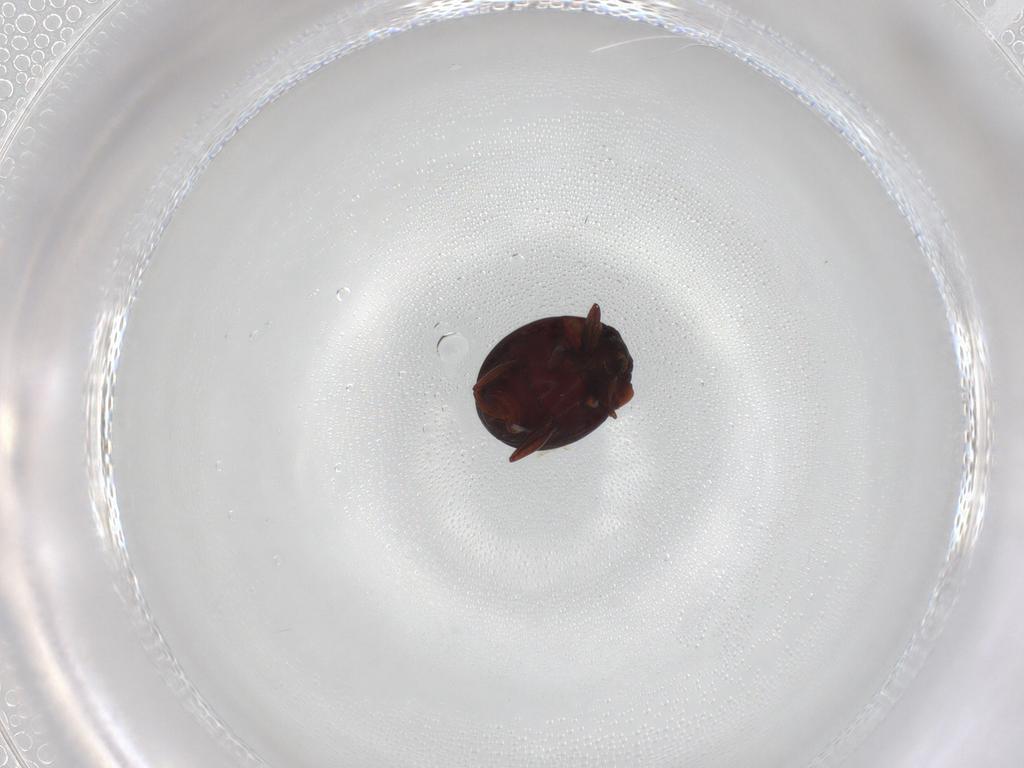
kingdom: Animalia
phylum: Arthropoda
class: Insecta
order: Coleoptera
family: Histeridae
